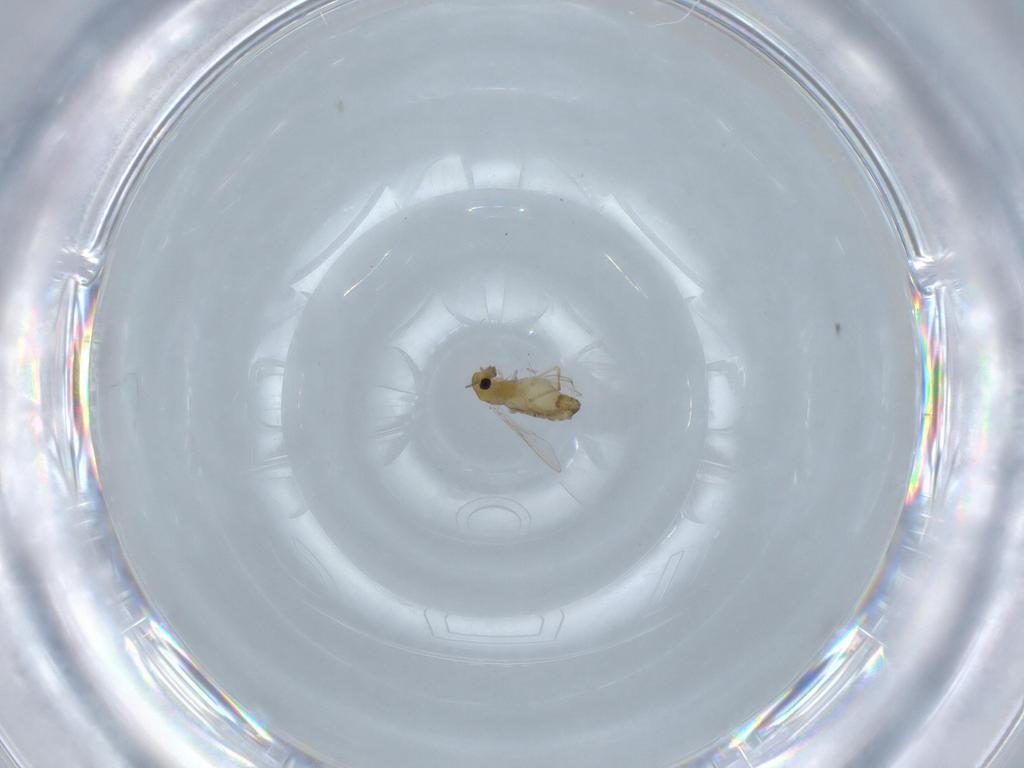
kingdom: Animalia
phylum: Arthropoda
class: Insecta
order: Diptera
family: Chironomidae
